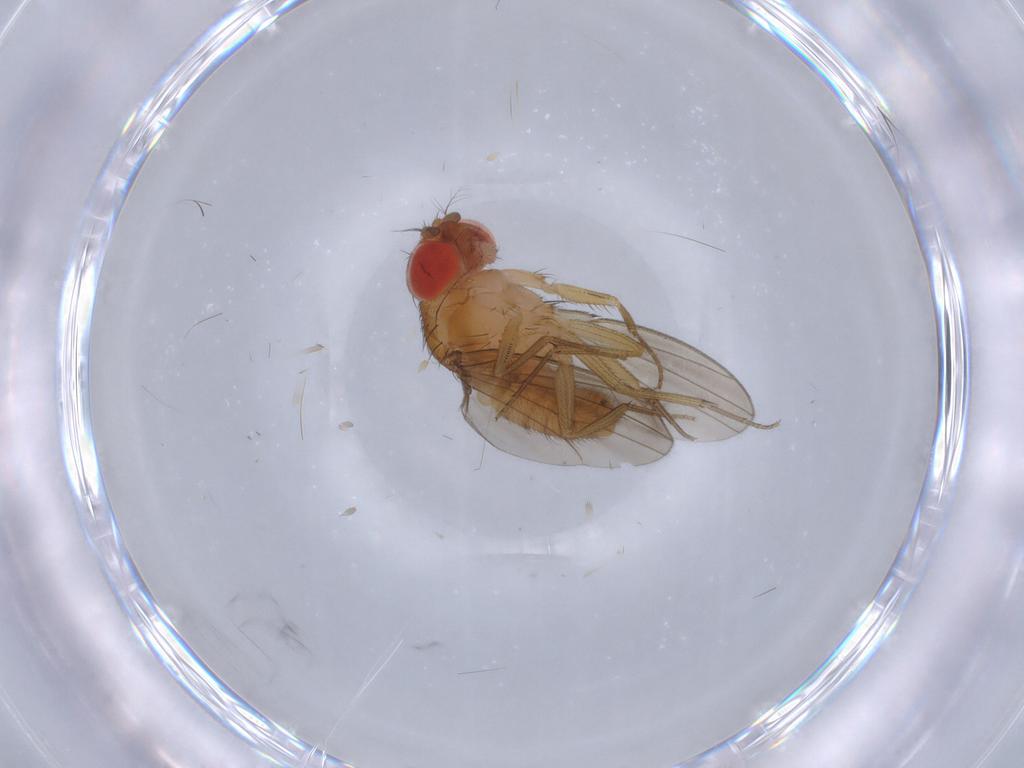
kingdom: Animalia
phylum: Arthropoda
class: Insecta
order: Diptera
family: Drosophilidae
